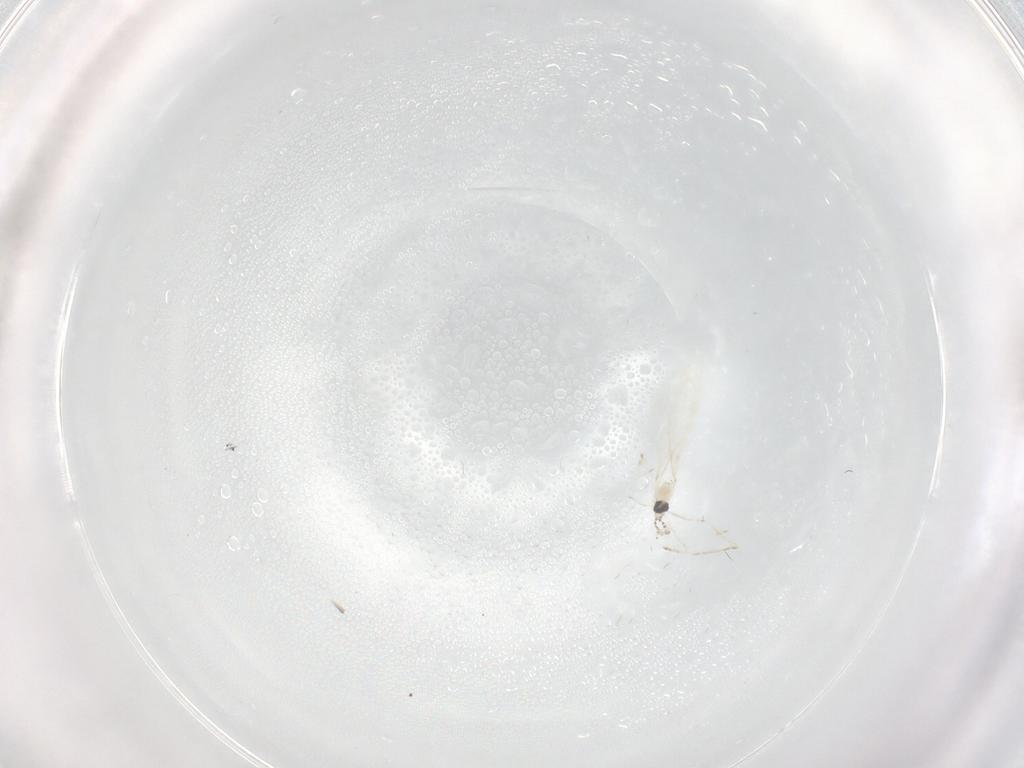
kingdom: Animalia
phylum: Arthropoda
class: Insecta
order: Diptera
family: Cecidomyiidae
